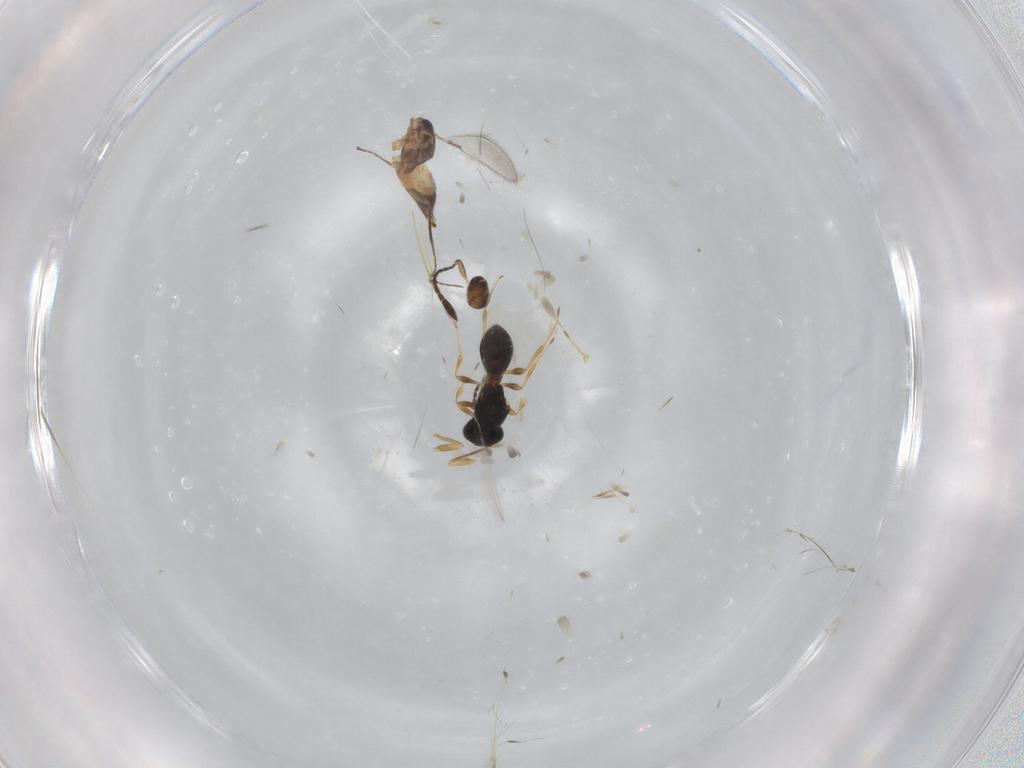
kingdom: Animalia
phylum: Arthropoda
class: Insecta
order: Hymenoptera
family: Platygastridae
